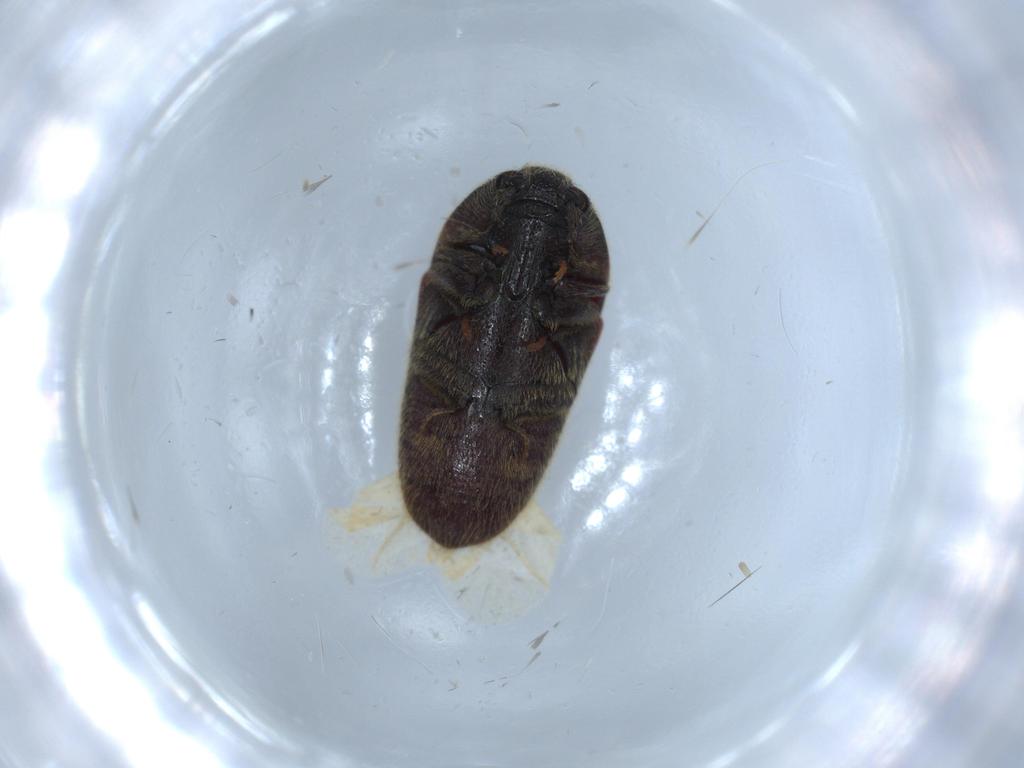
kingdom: Animalia
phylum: Arthropoda
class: Insecta
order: Coleoptera
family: Throscidae
